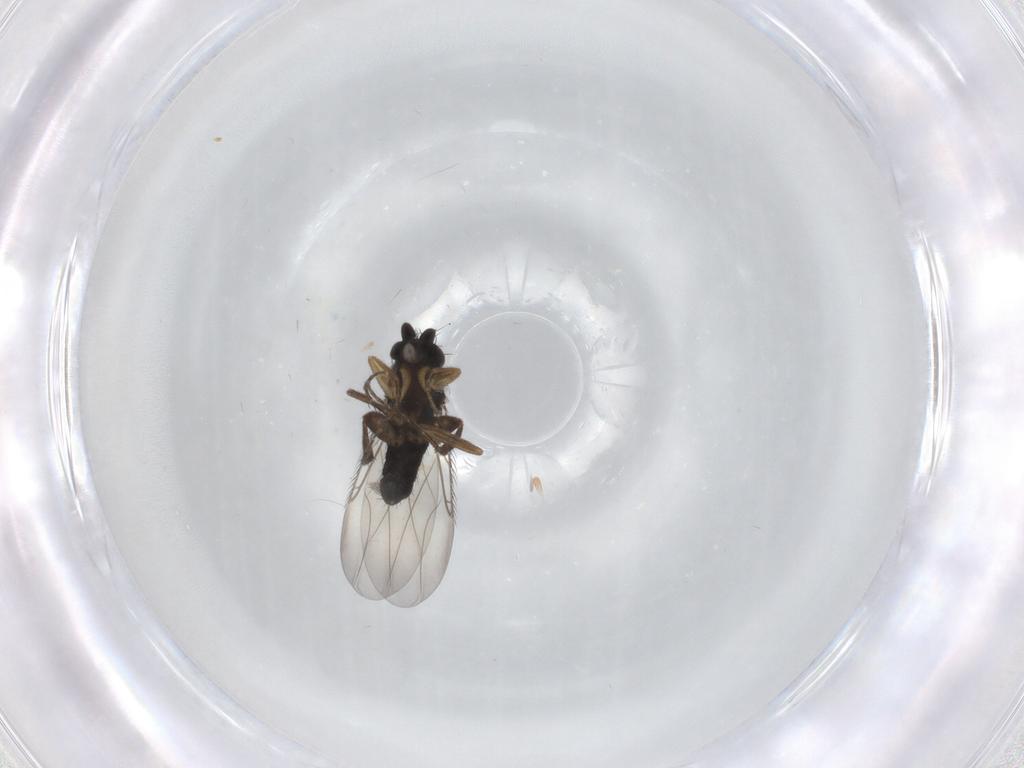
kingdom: Animalia
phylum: Arthropoda
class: Insecta
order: Diptera
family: Phoridae
